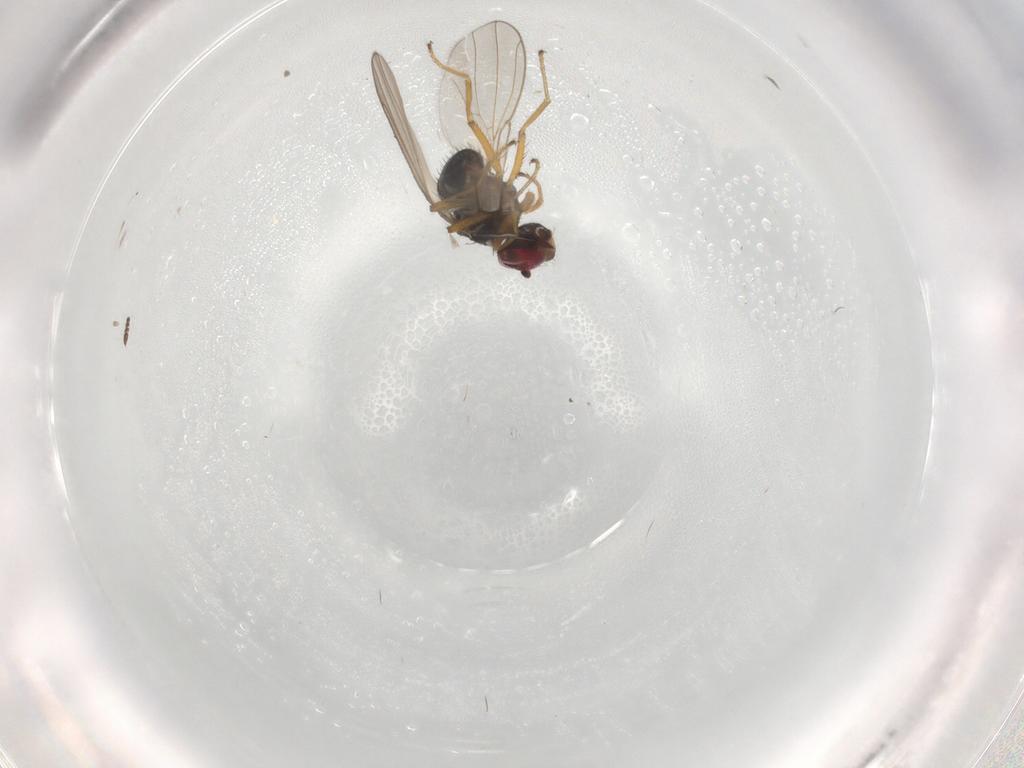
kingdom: Animalia
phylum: Arthropoda
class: Insecta
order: Diptera
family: Ephydridae
